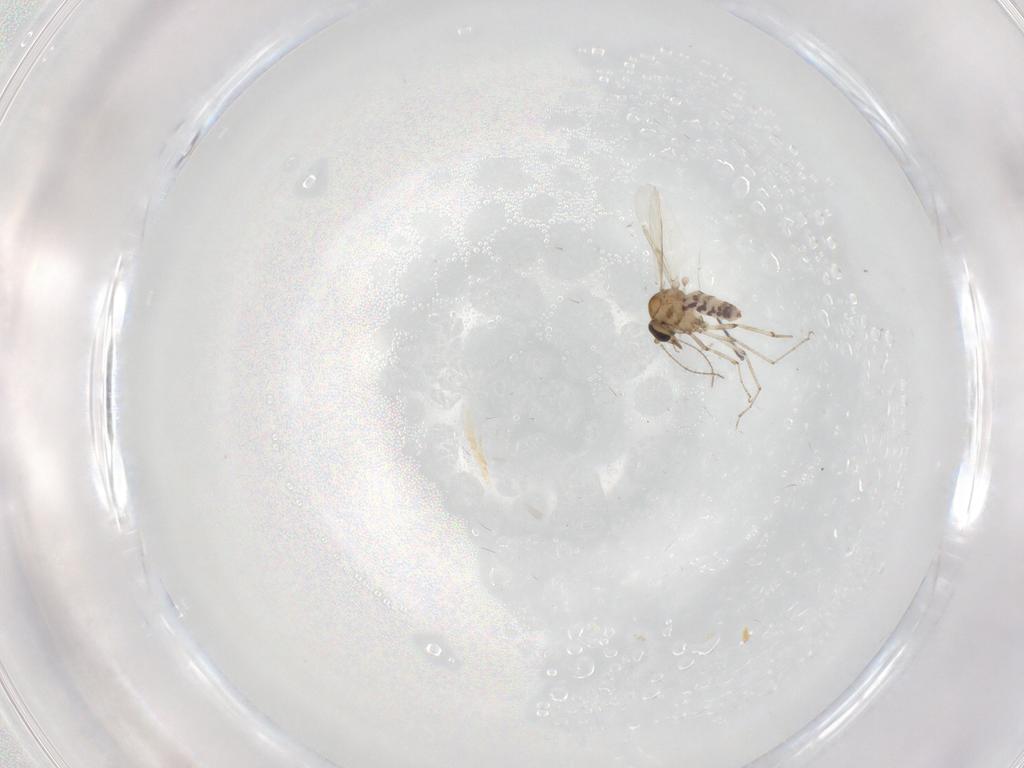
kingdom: Animalia
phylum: Arthropoda
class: Insecta
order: Diptera
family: Ceratopogonidae
